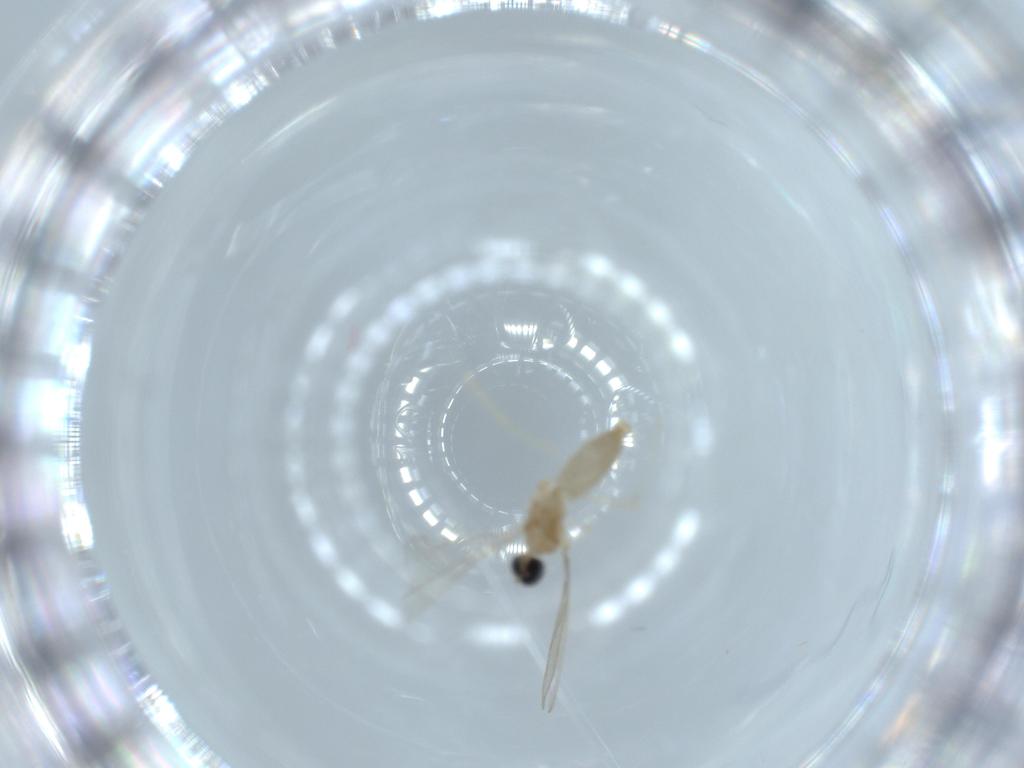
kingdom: Animalia
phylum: Arthropoda
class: Insecta
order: Diptera
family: Cecidomyiidae
